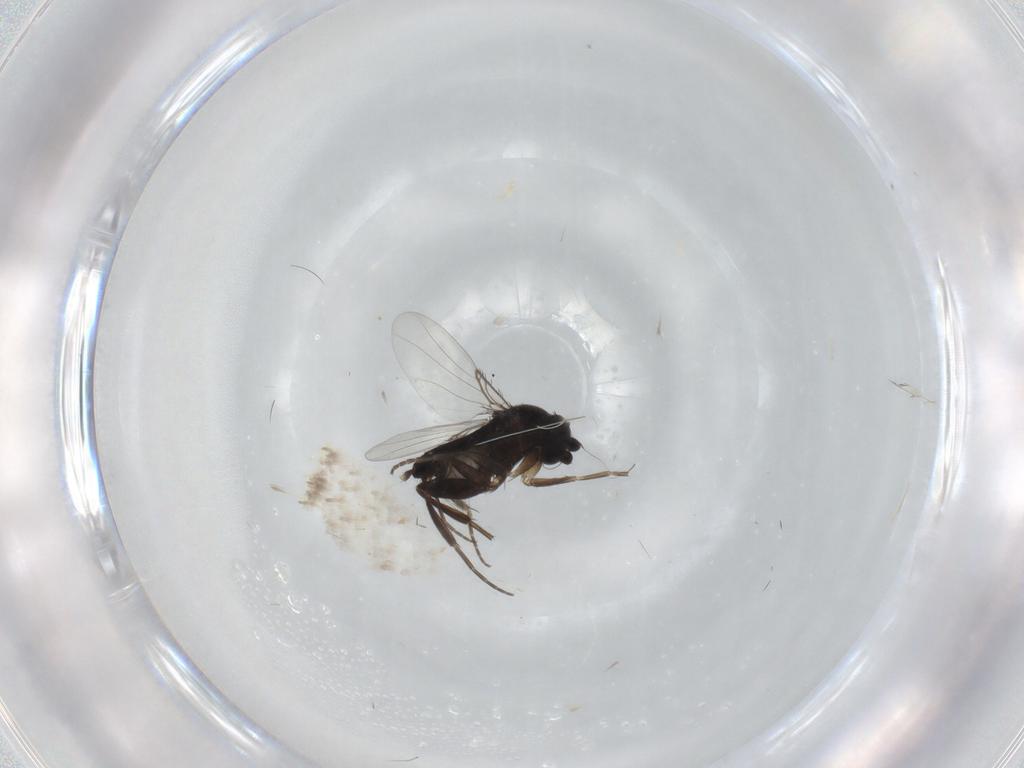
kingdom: Animalia
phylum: Arthropoda
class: Insecta
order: Diptera
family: Phoridae
